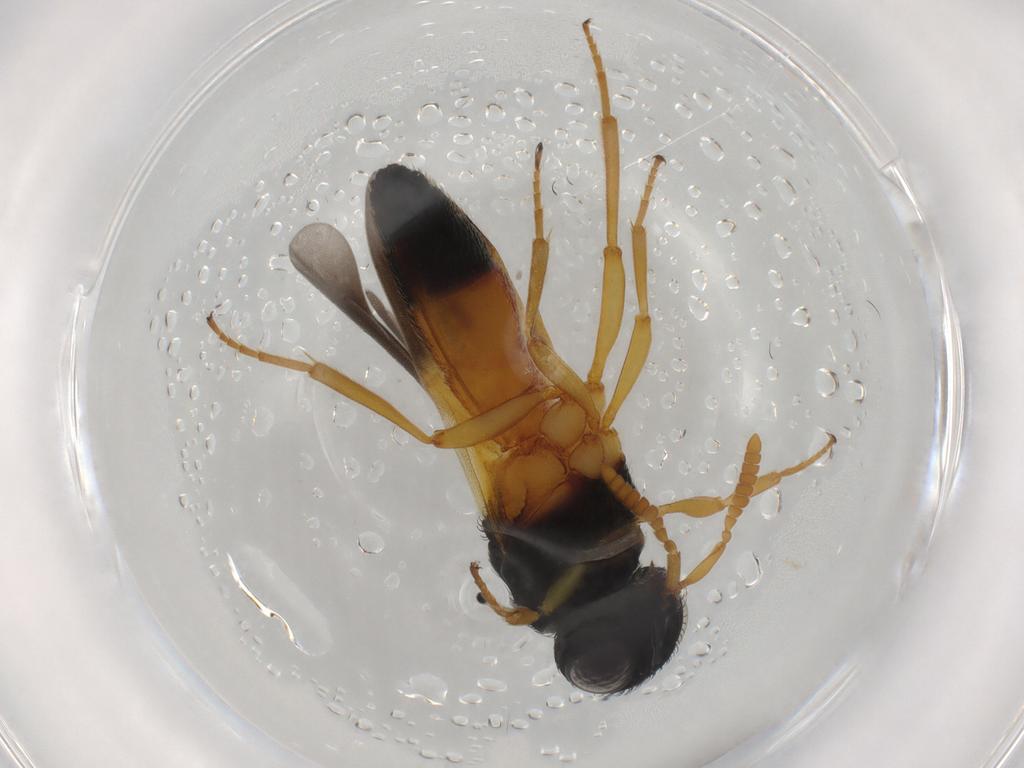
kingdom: Animalia
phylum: Arthropoda
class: Insecta
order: Hymenoptera
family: Scelionidae
